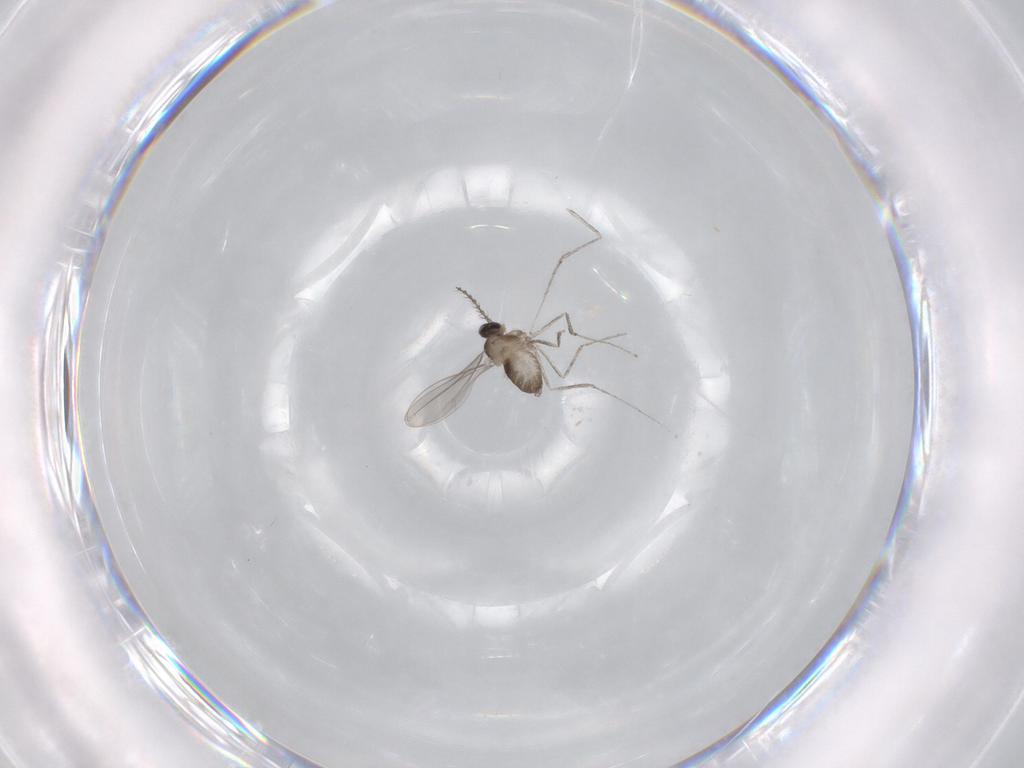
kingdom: Animalia
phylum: Arthropoda
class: Insecta
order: Diptera
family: Cecidomyiidae
